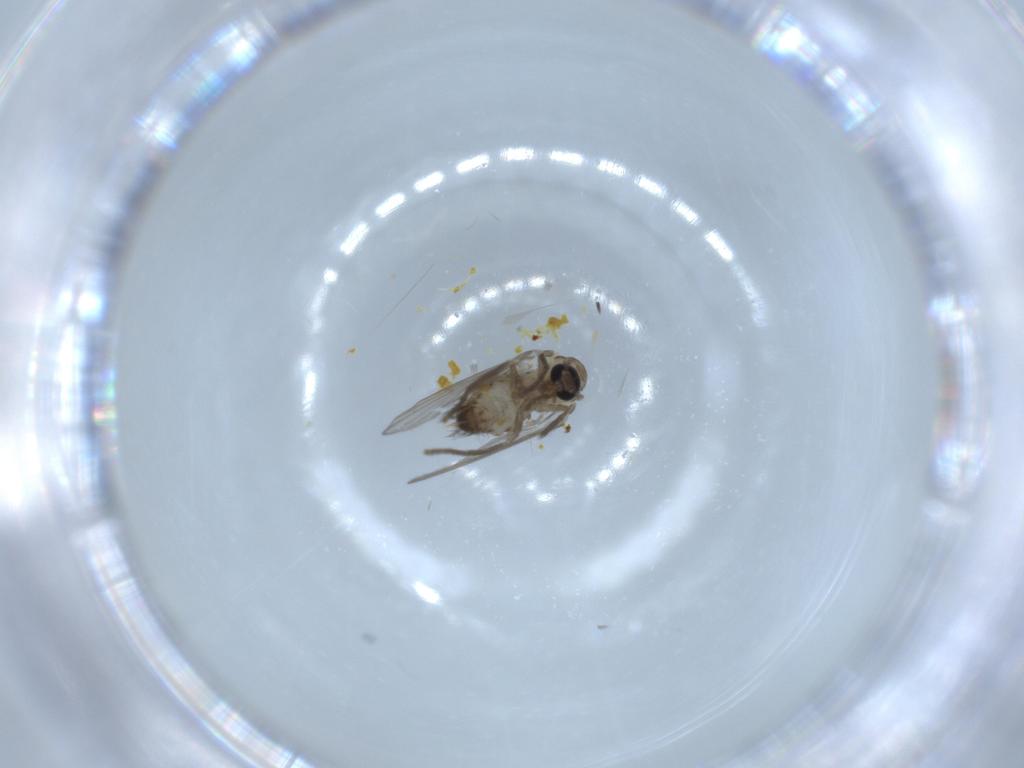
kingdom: Animalia
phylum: Arthropoda
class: Insecta
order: Diptera
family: Psychodidae
